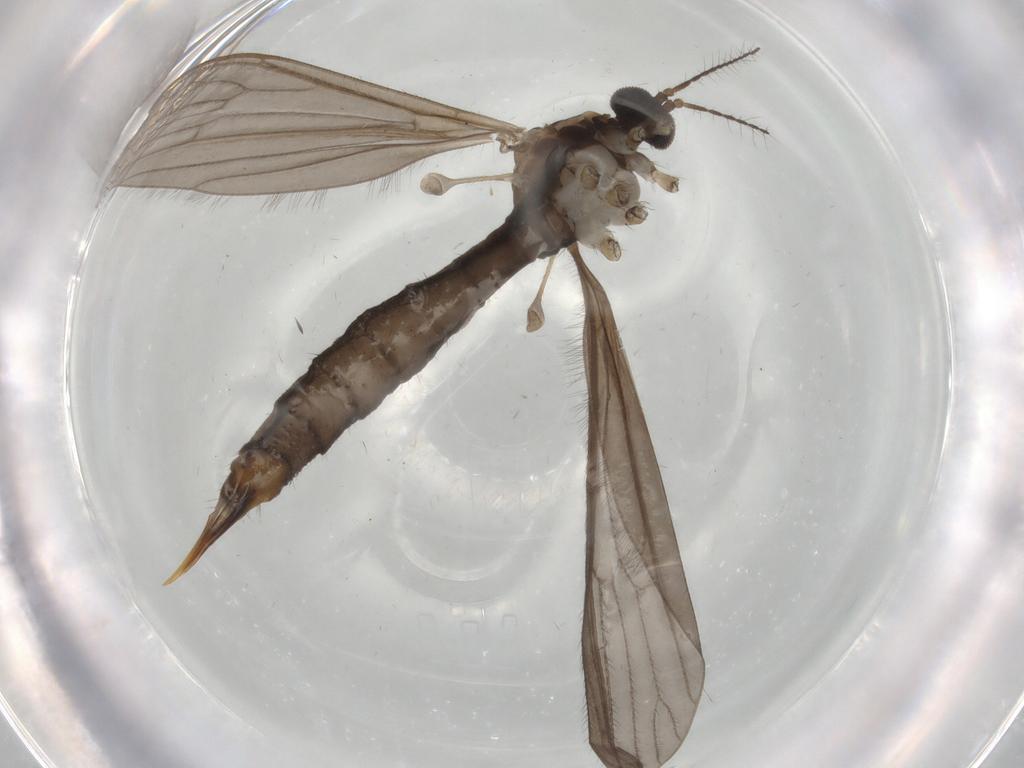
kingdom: Animalia
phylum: Arthropoda
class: Insecta
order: Diptera
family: Limoniidae
